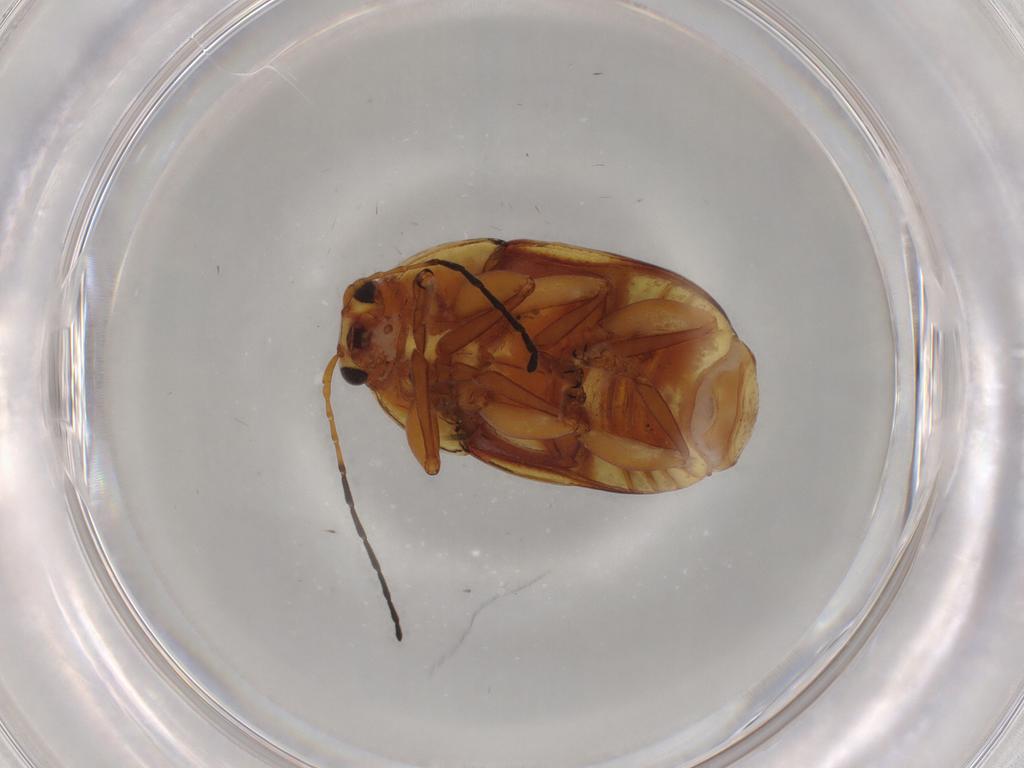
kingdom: Animalia
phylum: Arthropoda
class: Insecta
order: Coleoptera
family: Chrysomelidae
